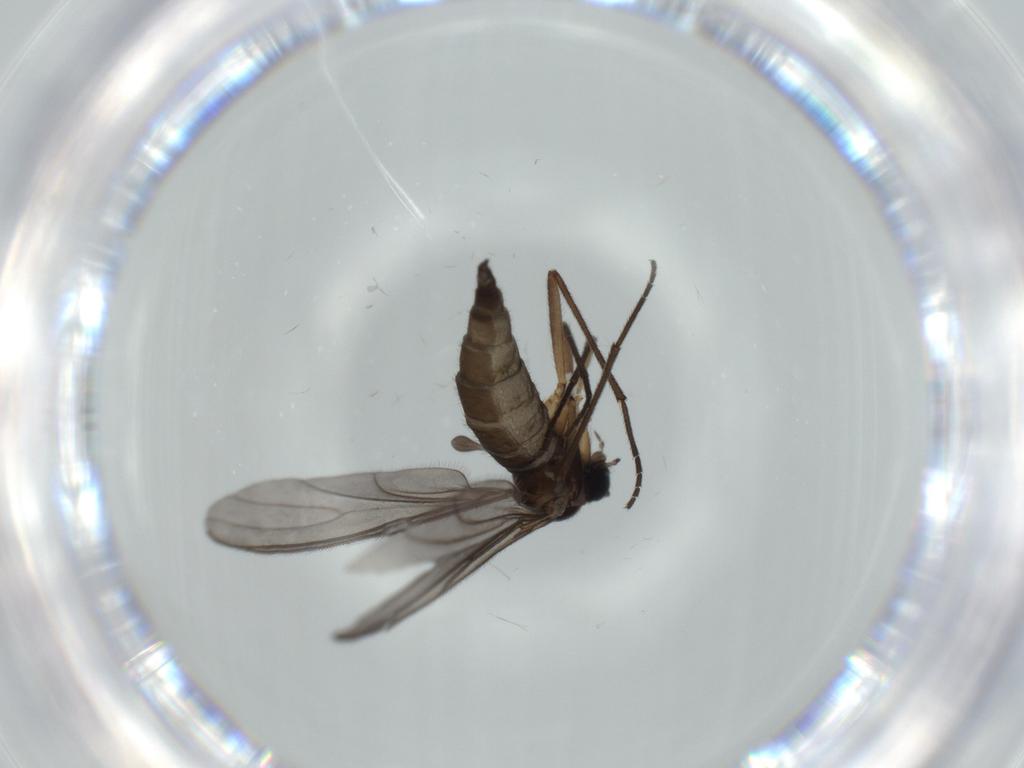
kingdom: Animalia
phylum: Arthropoda
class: Insecta
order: Diptera
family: Sciaridae
